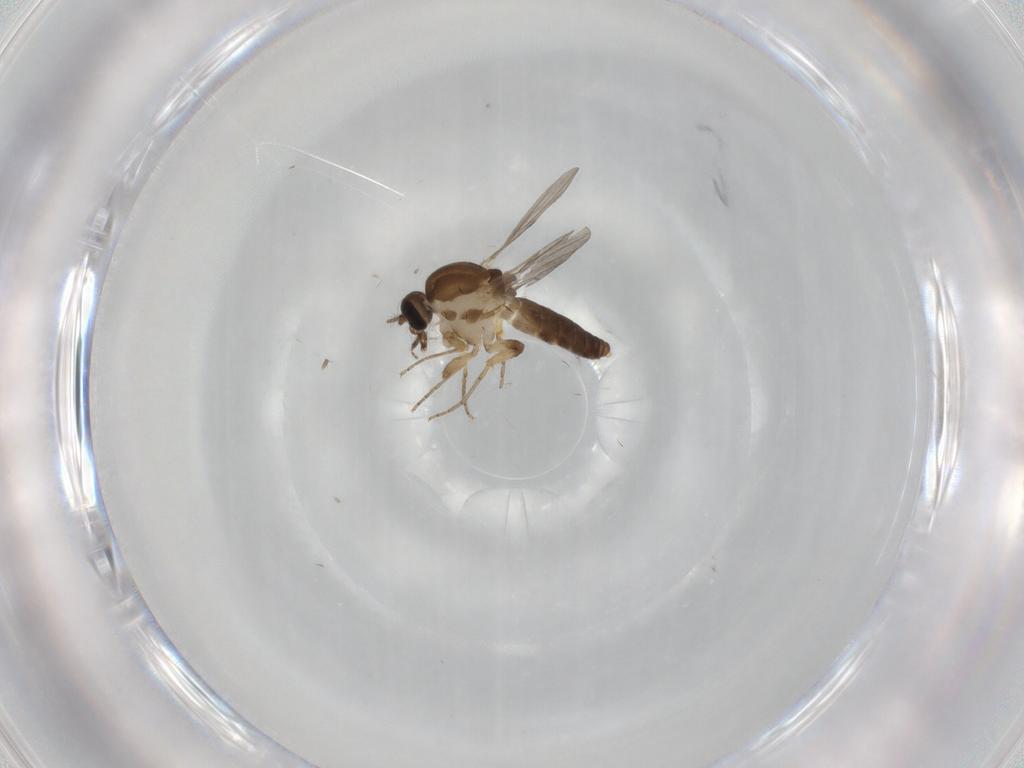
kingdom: Animalia
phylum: Arthropoda
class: Insecta
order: Diptera
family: Ceratopogonidae
